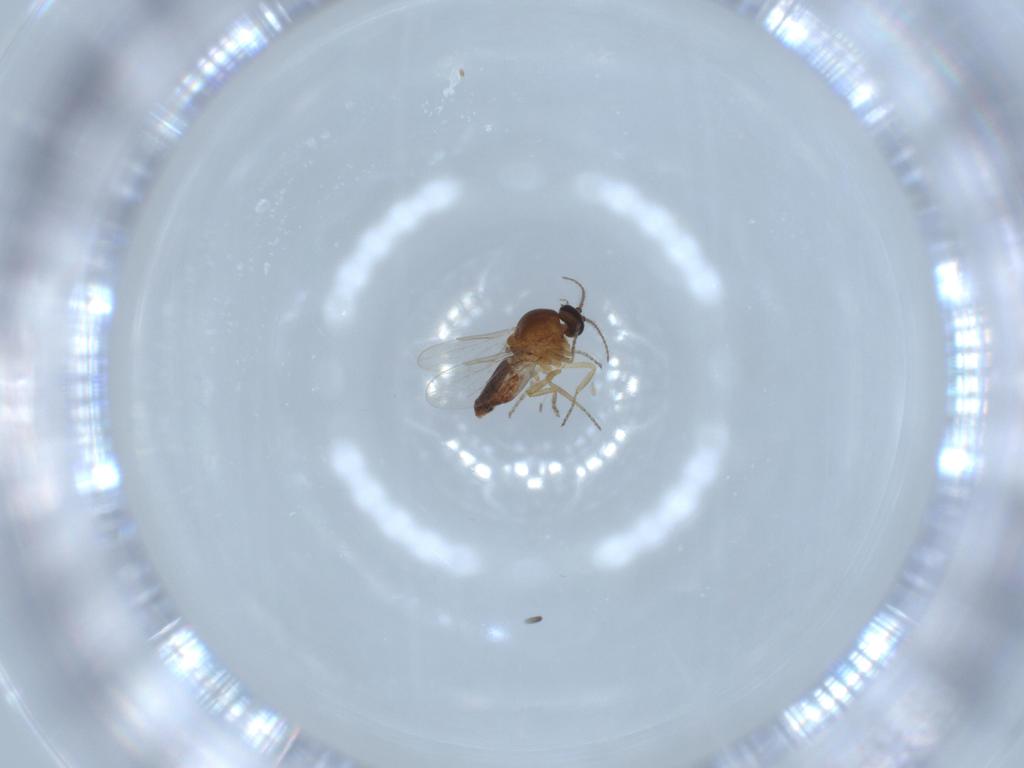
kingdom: Animalia
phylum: Arthropoda
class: Insecta
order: Diptera
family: Ceratopogonidae
